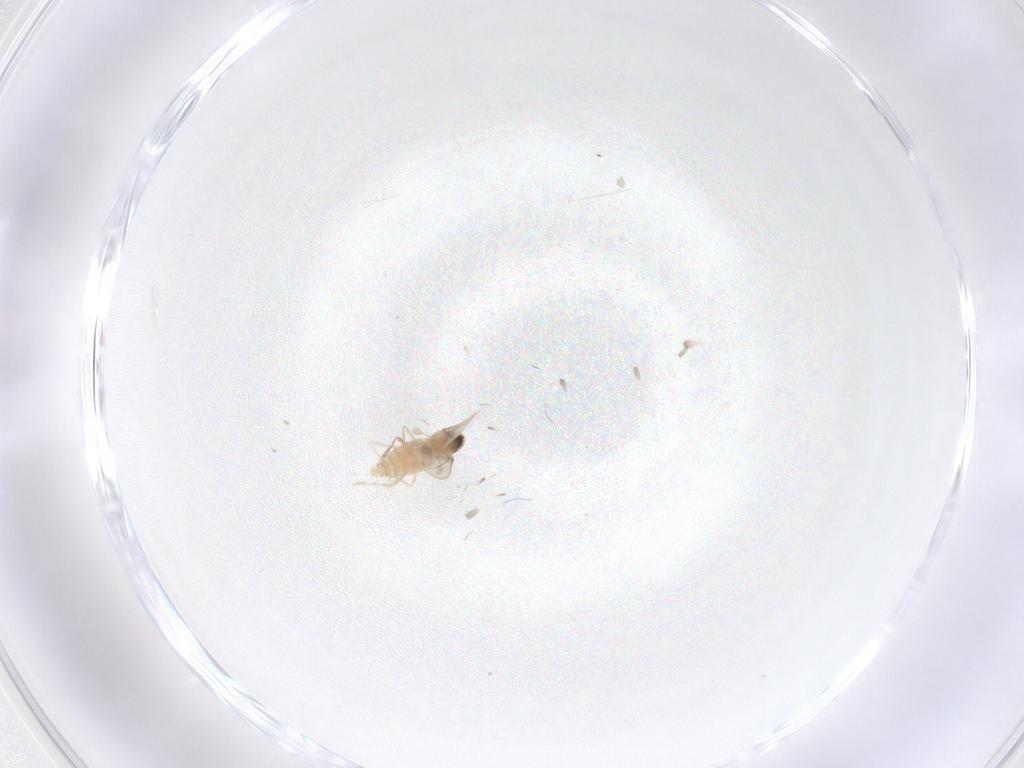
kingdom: Animalia
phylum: Arthropoda
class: Insecta
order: Diptera
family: Cecidomyiidae
